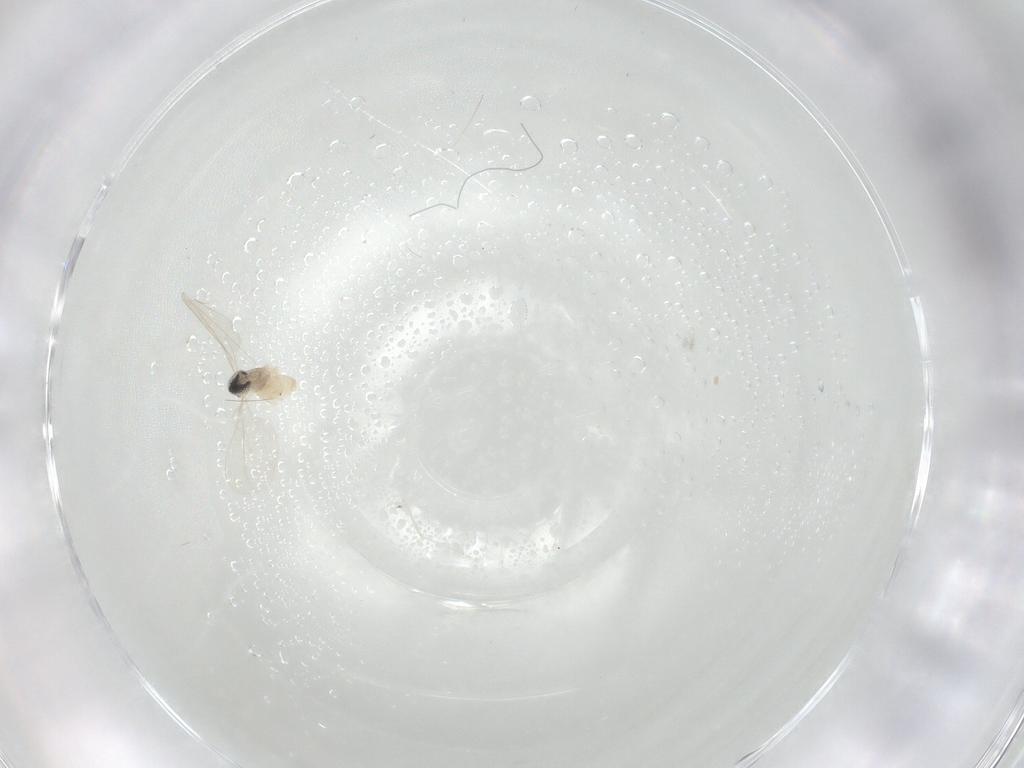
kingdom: Animalia
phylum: Arthropoda
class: Insecta
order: Diptera
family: Cecidomyiidae
